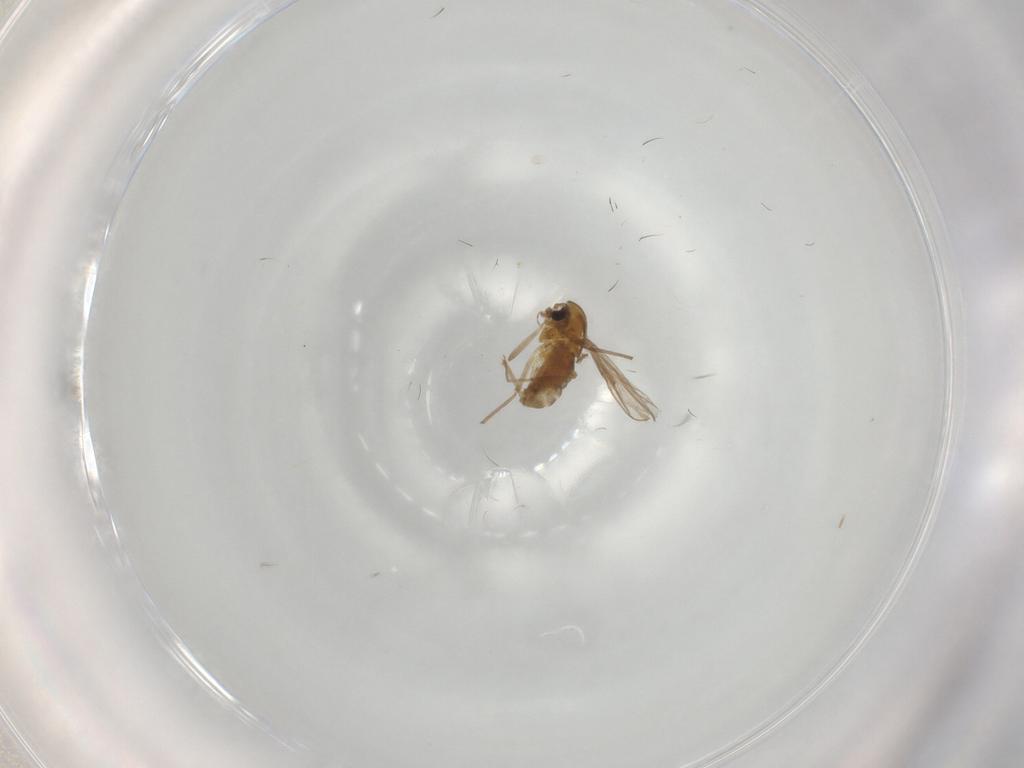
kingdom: Animalia
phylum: Arthropoda
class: Insecta
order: Diptera
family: Chironomidae
